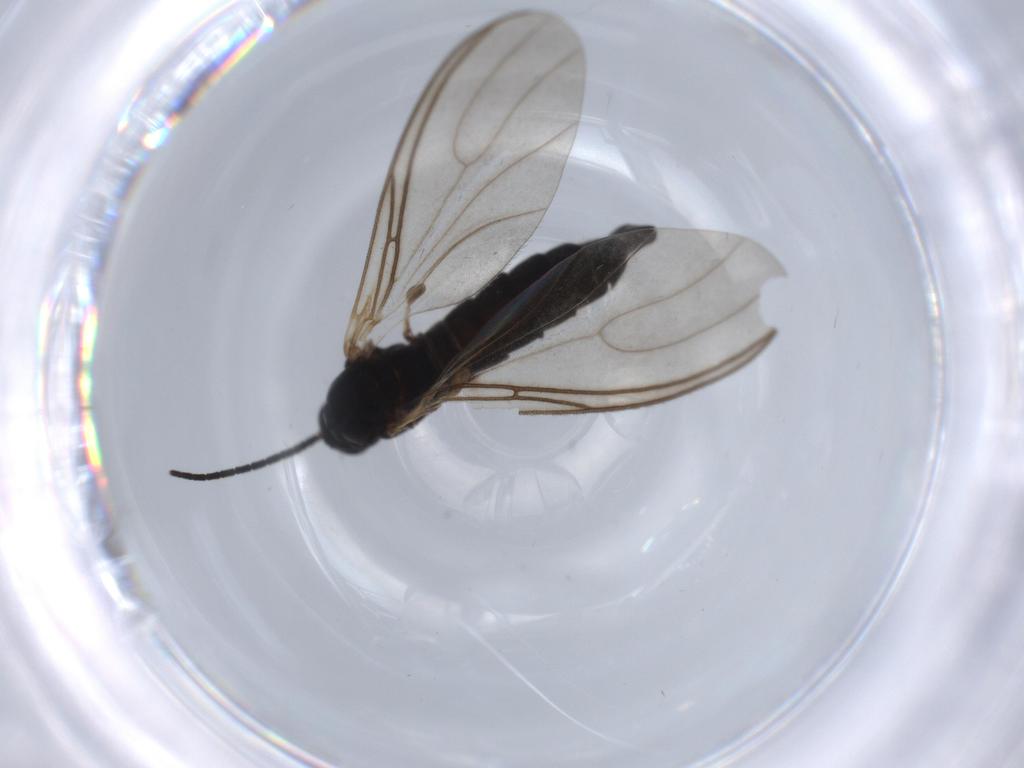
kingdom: Animalia
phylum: Arthropoda
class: Insecta
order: Diptera
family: Sciaridae
